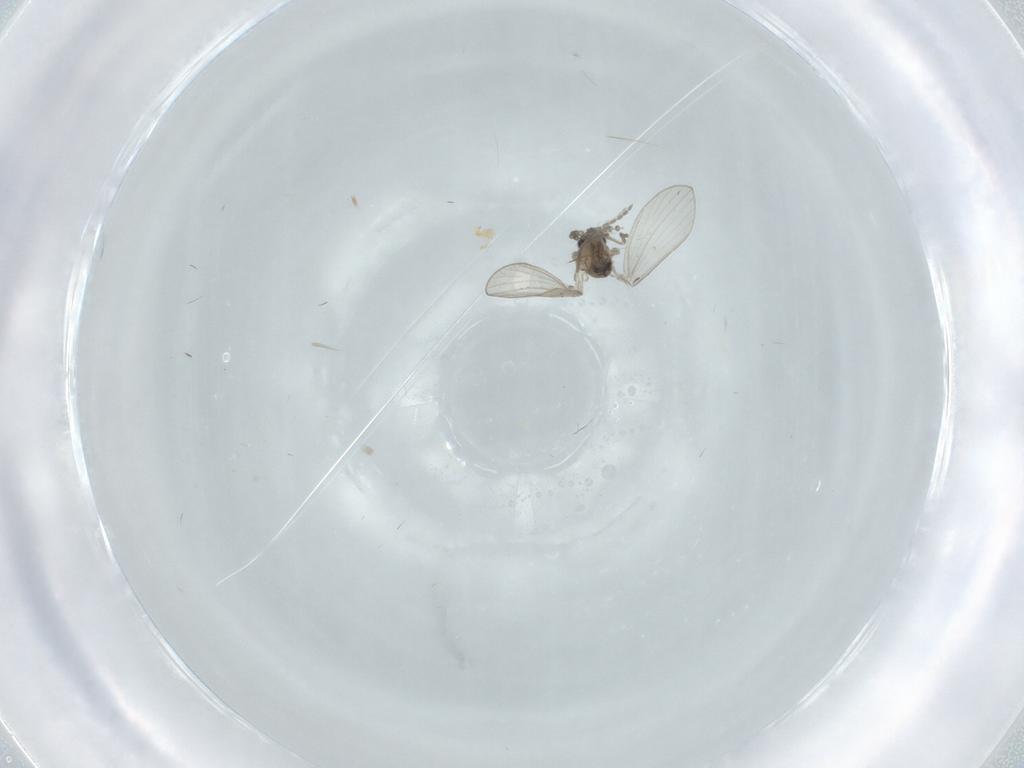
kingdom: Animalia
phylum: Arthropoda
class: Insecta
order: Diptera
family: Psychodidae
